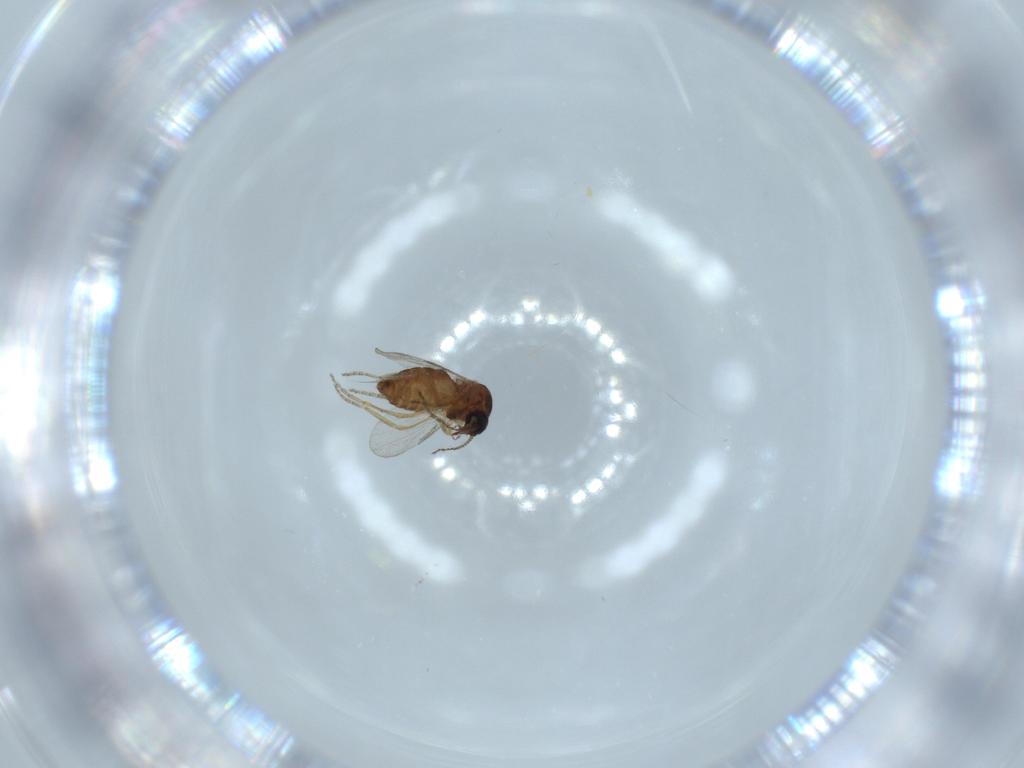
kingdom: Animalia
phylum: Arthropoda
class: Insecta
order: Diptera
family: Ceratopogonidae
